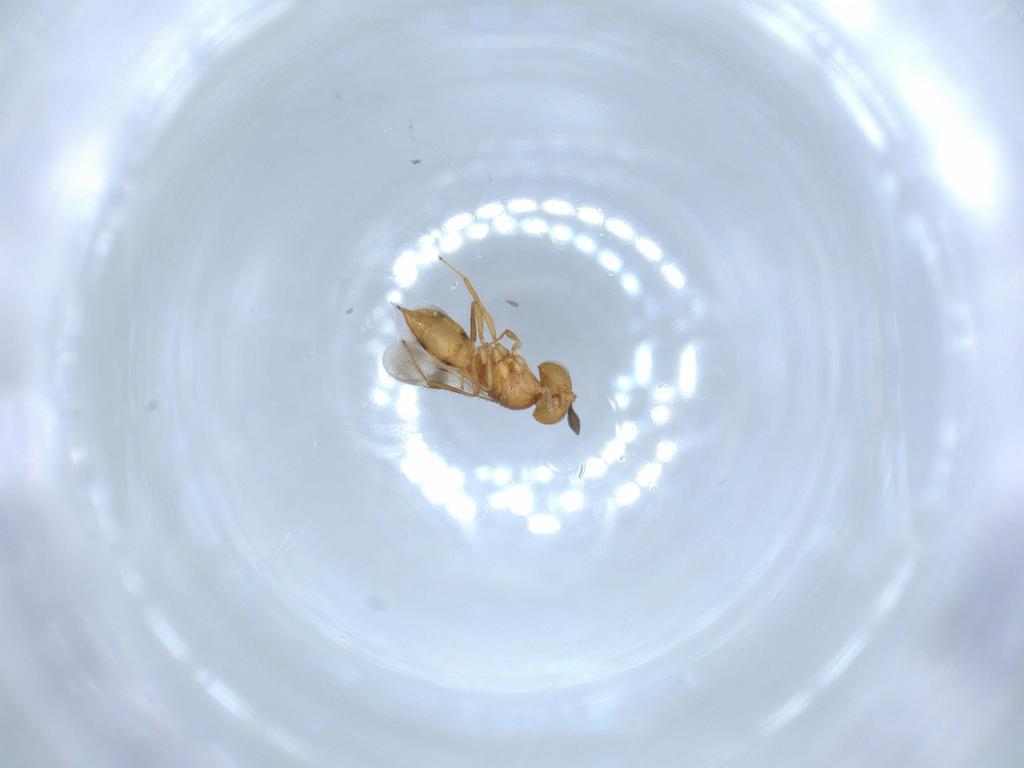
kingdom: Animalia
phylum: Arthropoda
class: Insecta
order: Hymenoptera
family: Scelionidae
